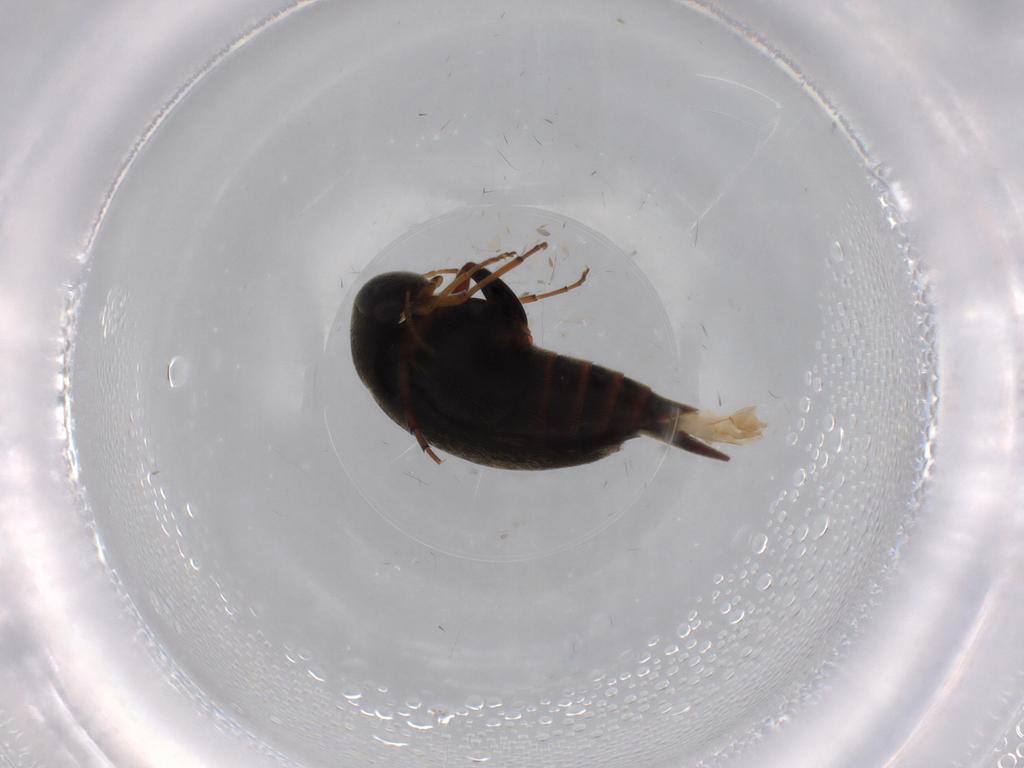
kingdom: Animalia
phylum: Arthropoda
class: Insecta
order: Coleoptera
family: Mordellidae
